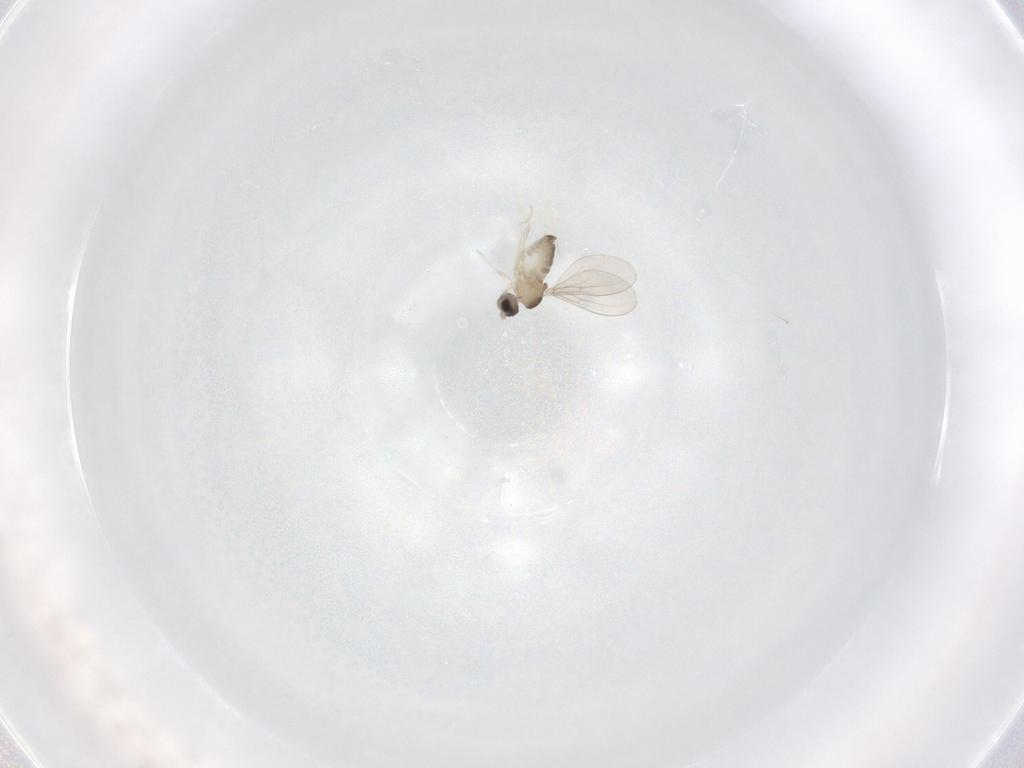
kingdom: Animalia
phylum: Arthropoda
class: Insecta
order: Diptera
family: Cecidomyiidae
